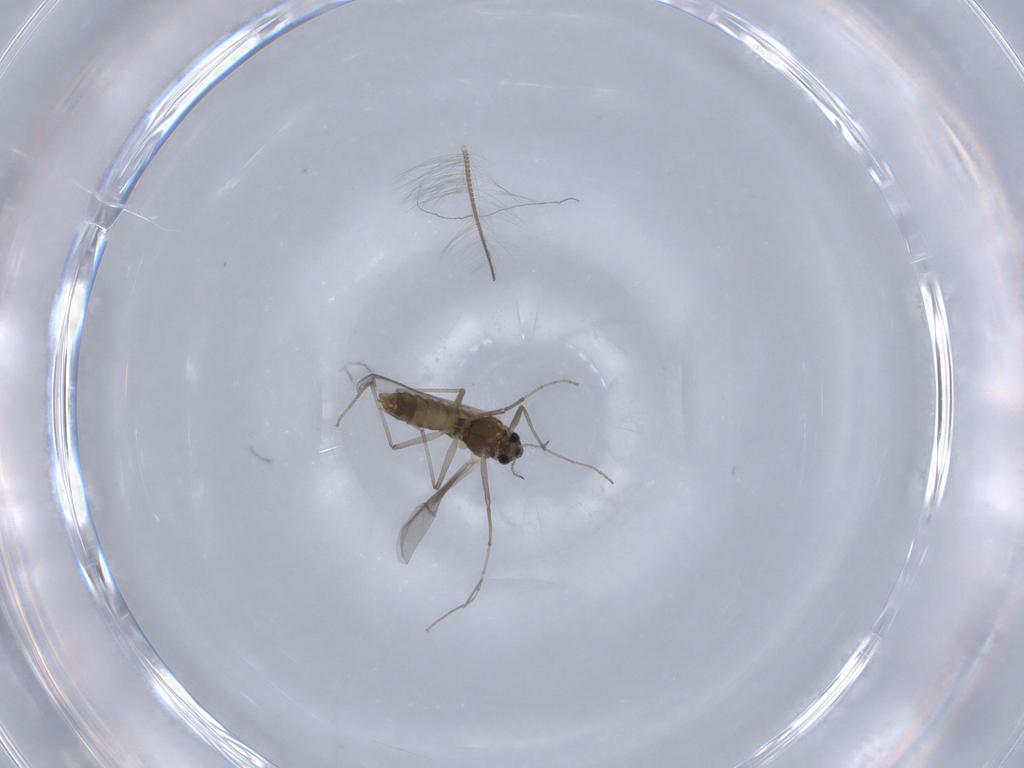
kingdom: Animalia
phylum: Arthropoda
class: Insecta
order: Diptera
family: Chironomidae
